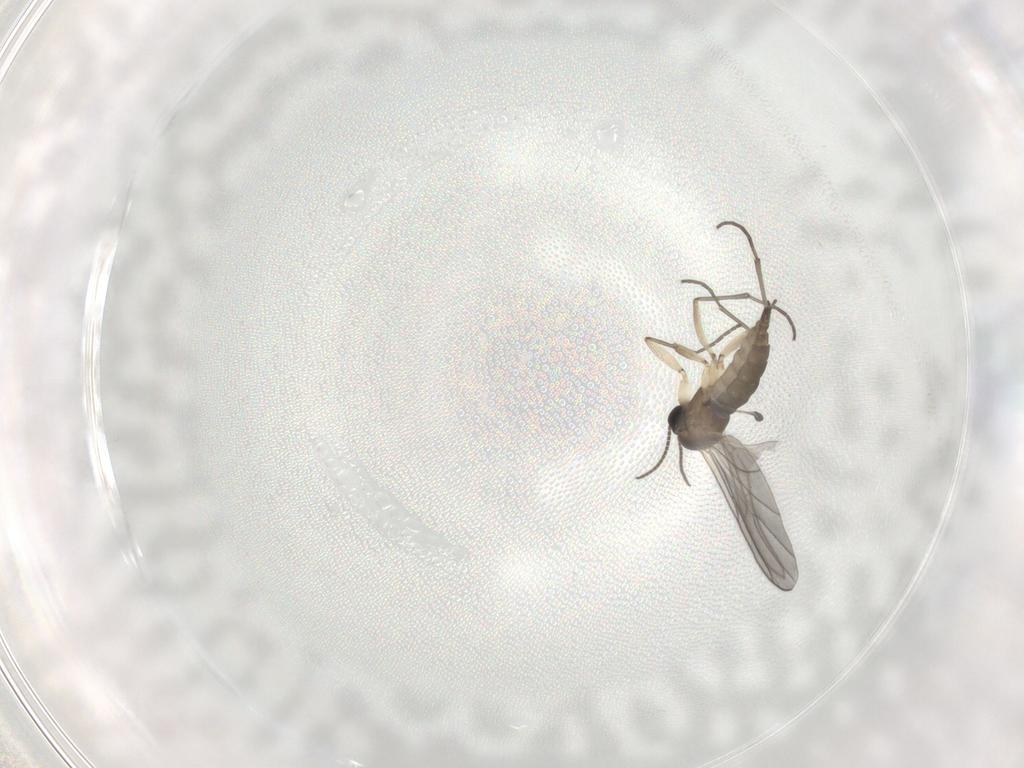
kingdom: Animalia
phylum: Arthropoda
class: Insecta
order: Diptera
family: Sciaridae
